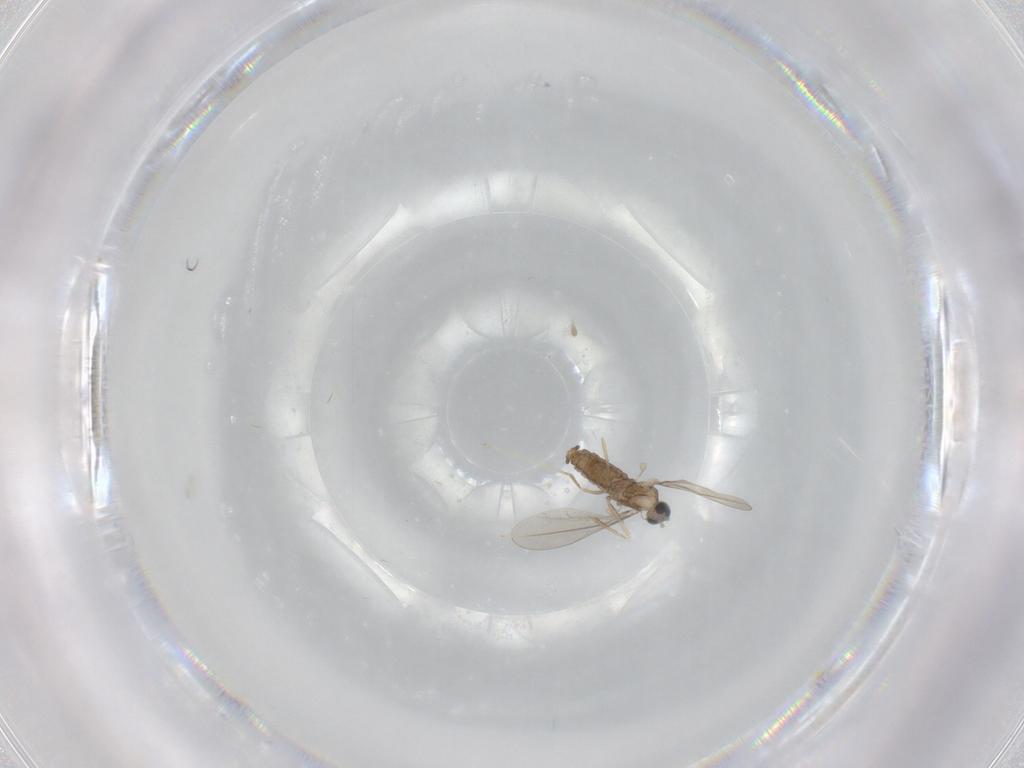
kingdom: Animalia
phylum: Arthropoda
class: Insecta
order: Diptera
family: Cecidomyiidae
